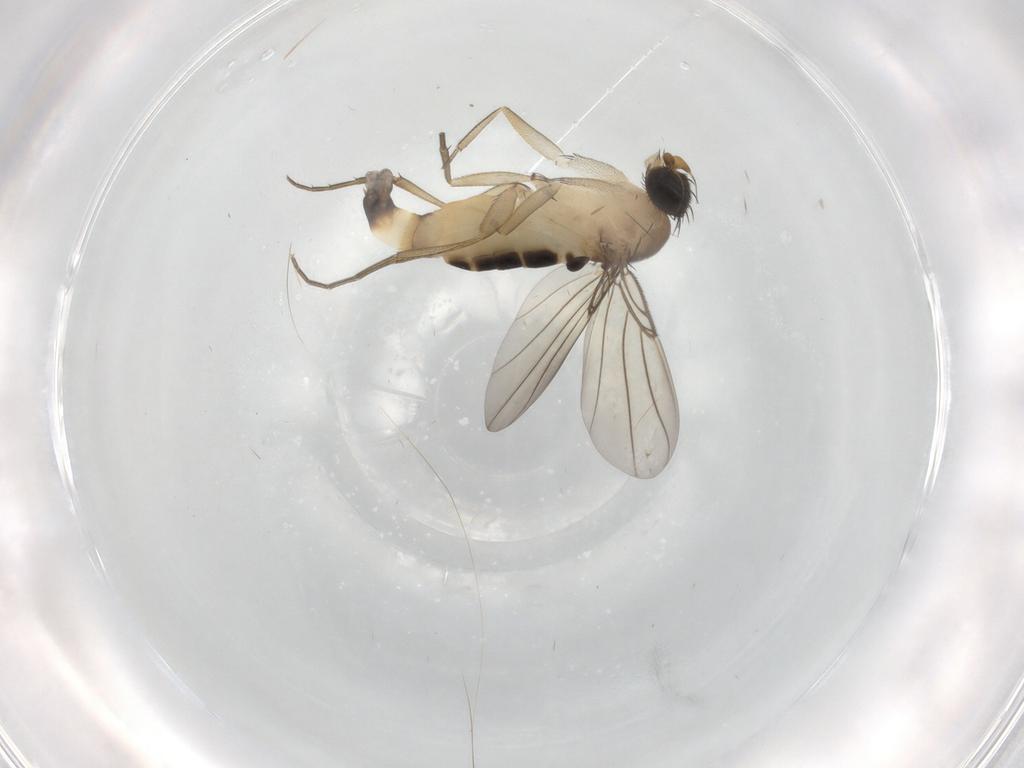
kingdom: Animalia
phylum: Arthropoda
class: Insecta
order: Diptera
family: Phoridae
